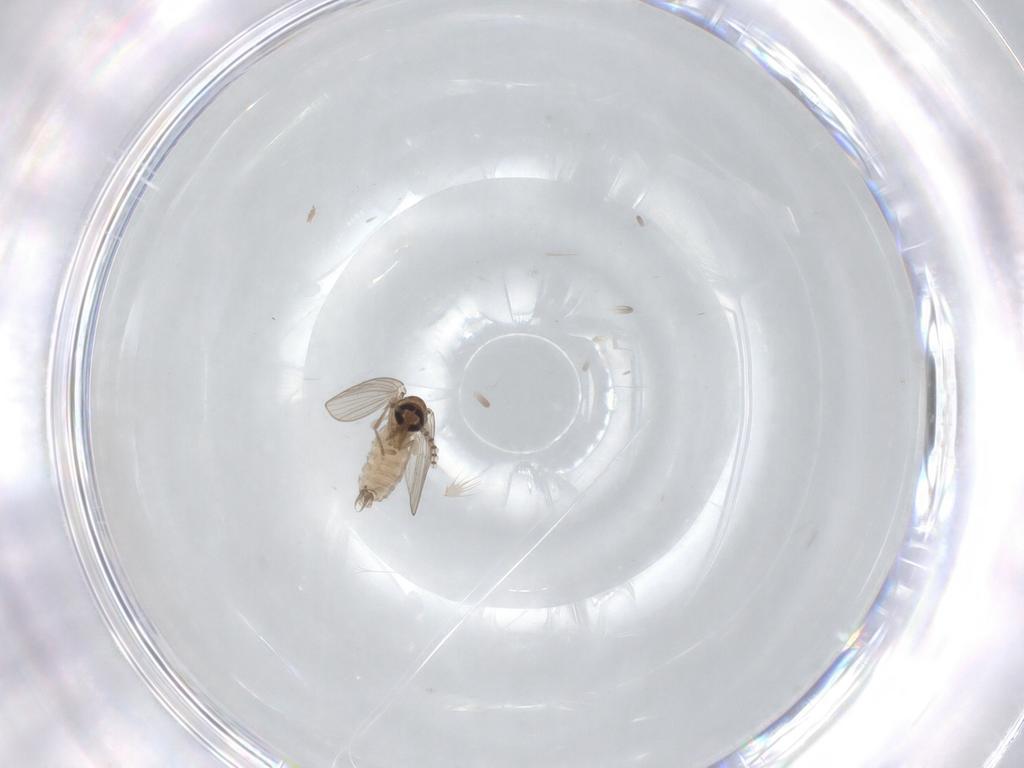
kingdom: Animalia
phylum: Arthropoda
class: Insecta
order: Diptera
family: Psychodidae
